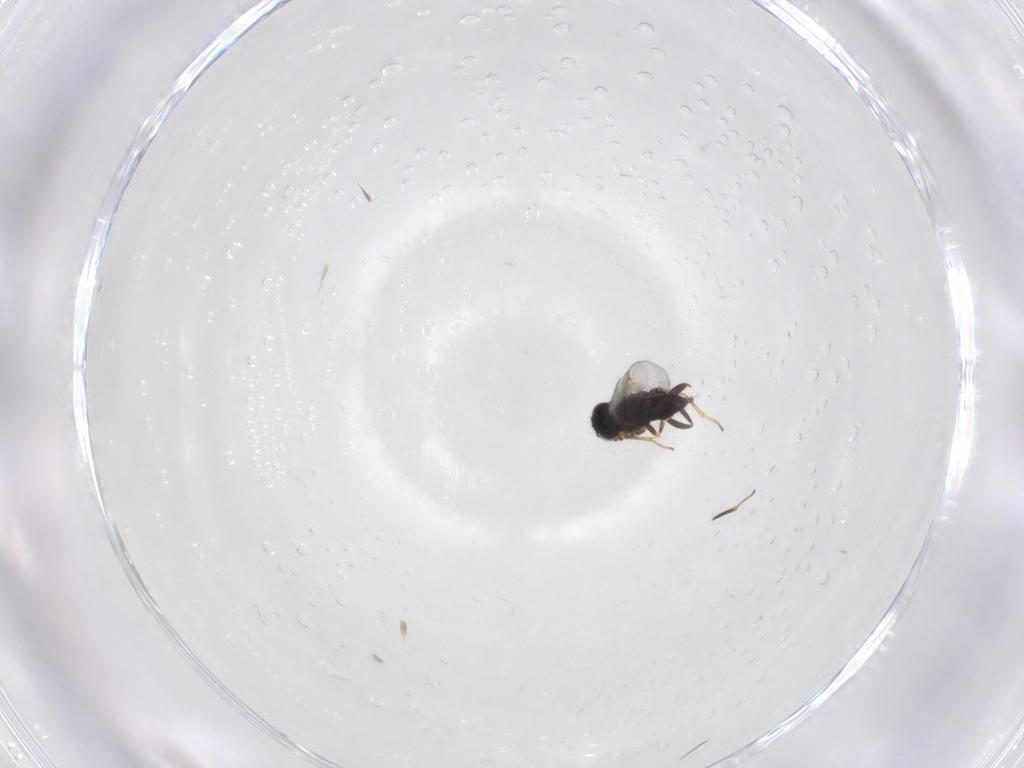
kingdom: Animalia
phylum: Arthropoda
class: Insecta
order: Hymenoptera
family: Encyrtidae
